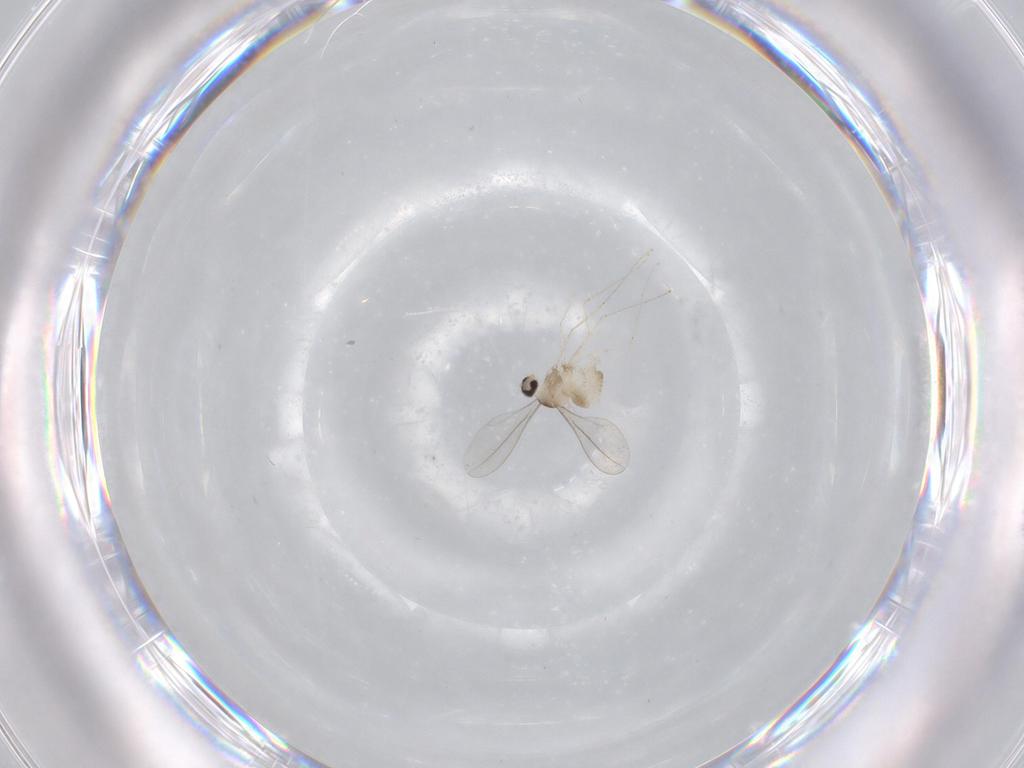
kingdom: Animalia
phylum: Arthropoda
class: Insecta
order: Diptera
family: Cecidomyiidae
